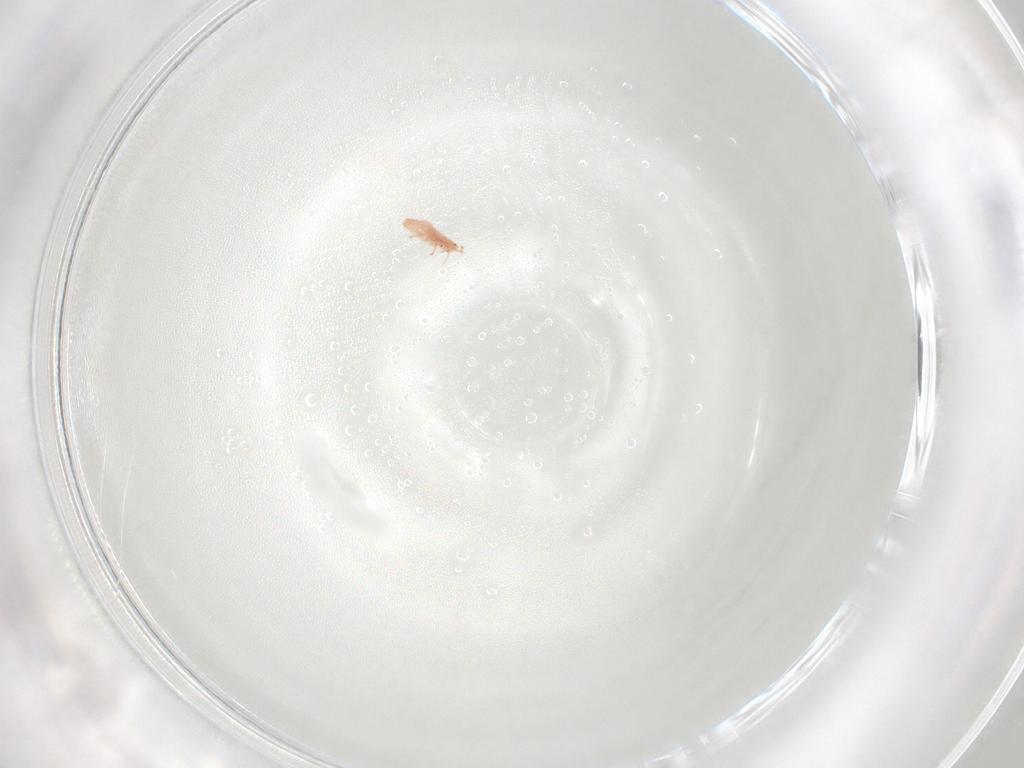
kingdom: Animalia
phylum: Arthropoda
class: Insecta
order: Hemiptera
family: Coccidae
